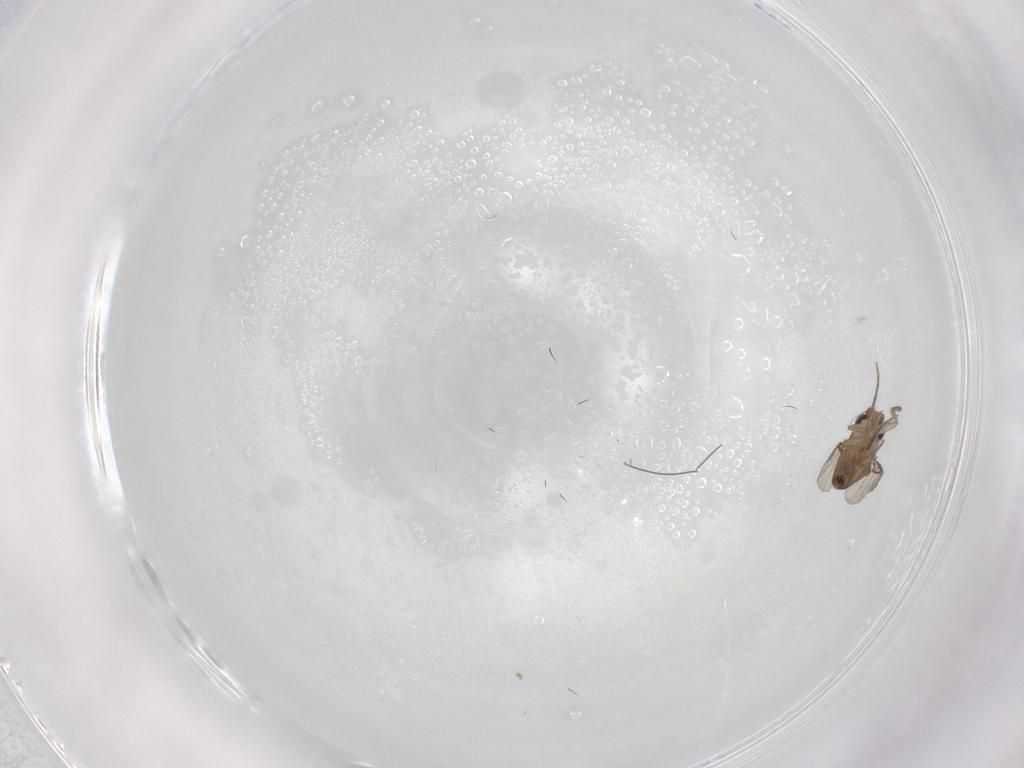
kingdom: Animalia
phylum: Arthropoda
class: Insecta
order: Diptera
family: Phoridae
